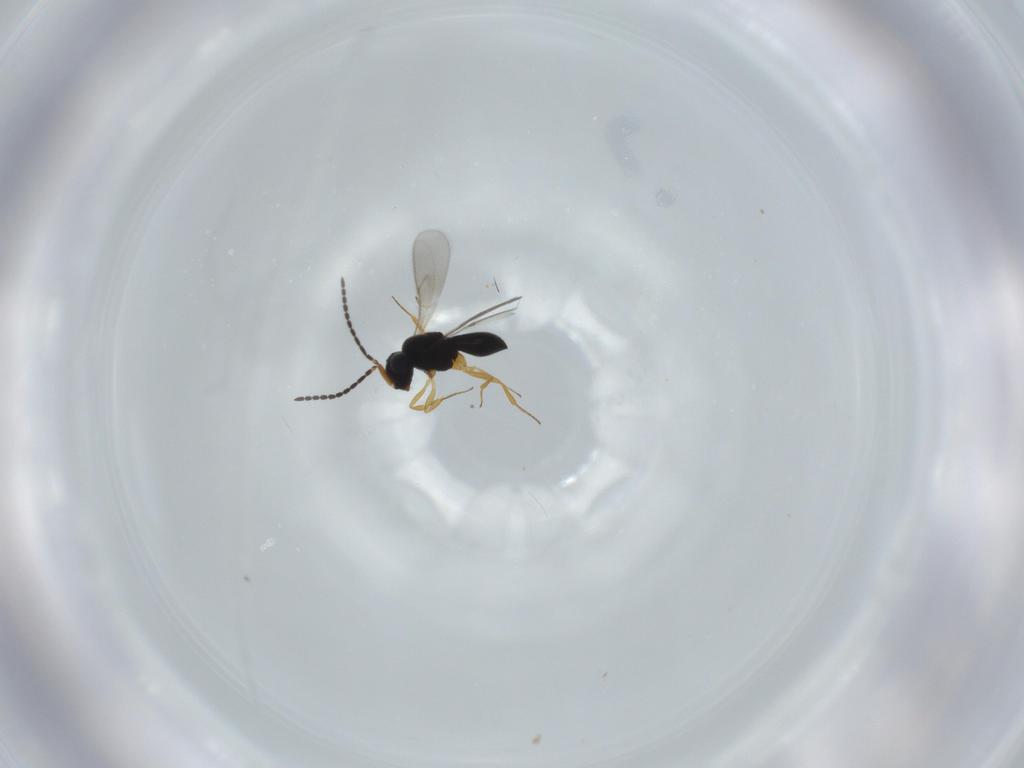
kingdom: Animalia
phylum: Arthropoda
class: Insecta
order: Hymenoptera
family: Scelionidae
